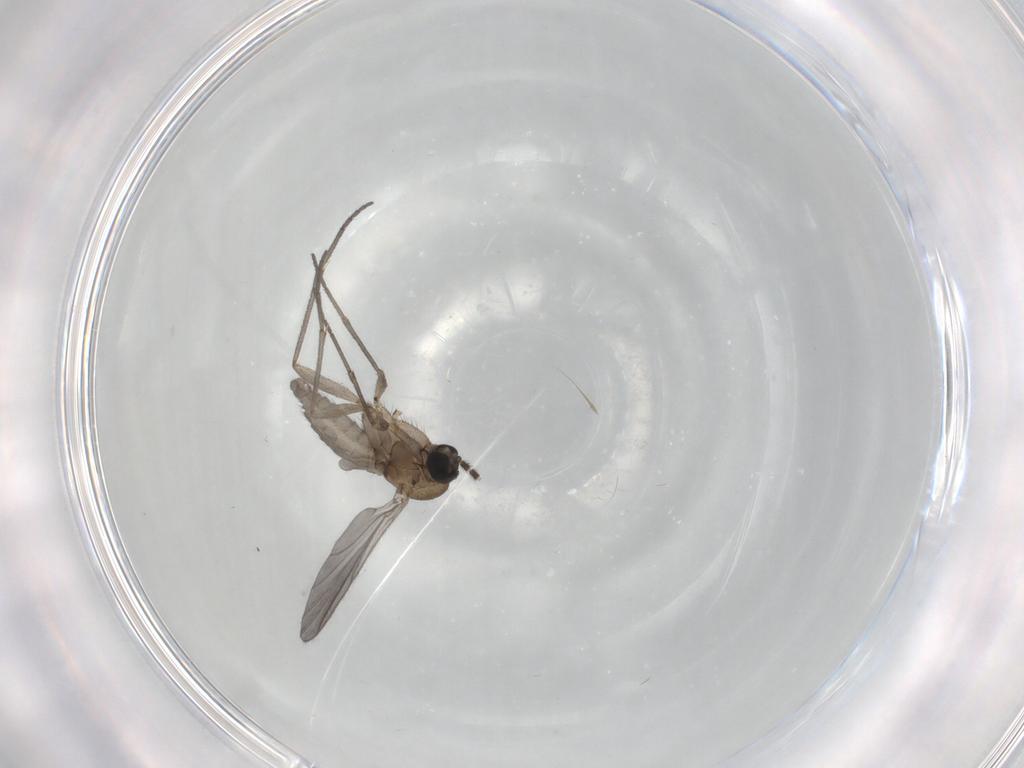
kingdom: Animalia
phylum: Arthropoda
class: Insecta
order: Diptera
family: Sciaridae
